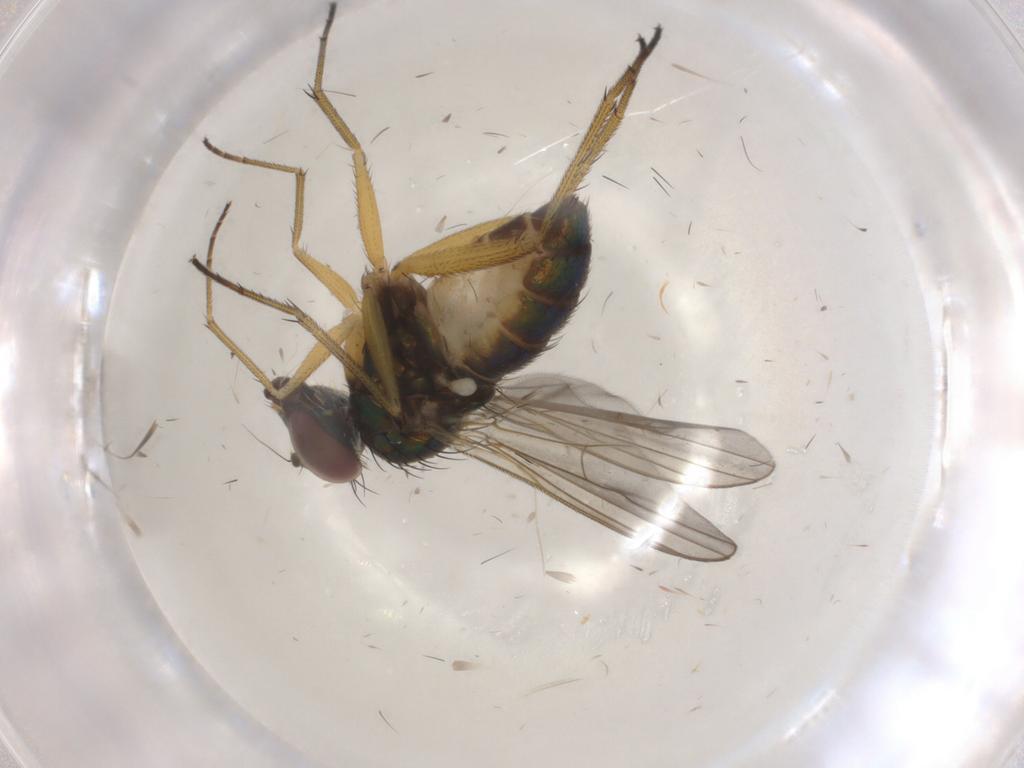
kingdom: Animalia
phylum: Arthropoda
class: Insecta
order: Diptera
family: Dolichopodidae
